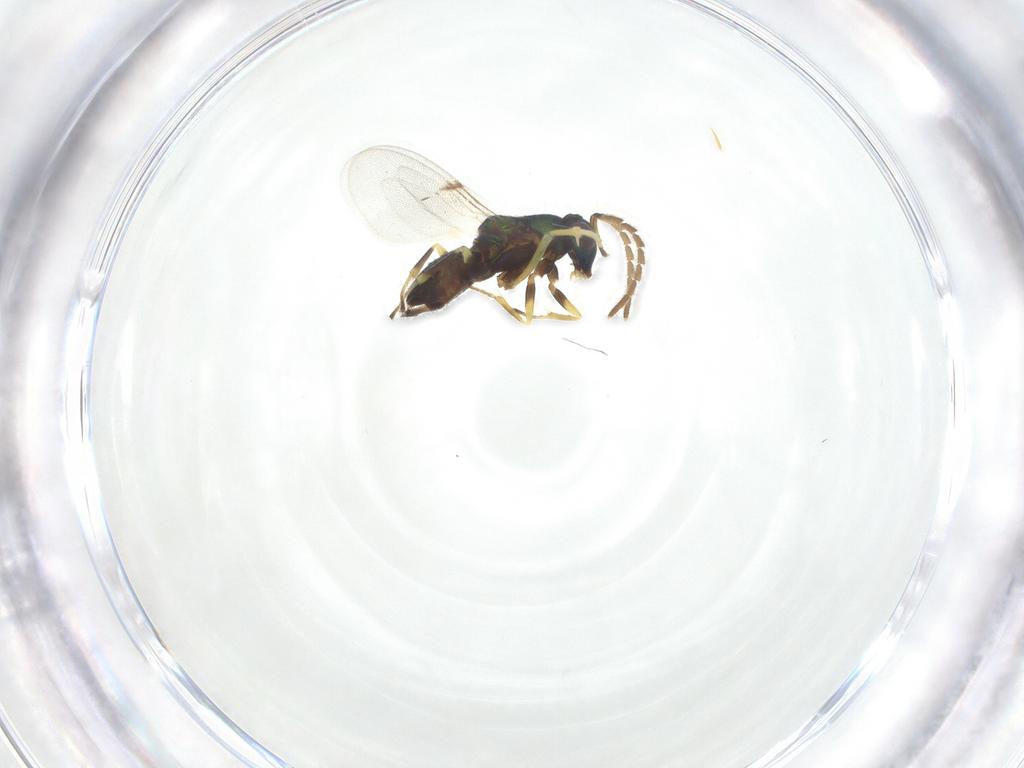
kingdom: Animalia
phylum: Arthropoda
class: Insecta
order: Hymenoptera
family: Encyrtidae
